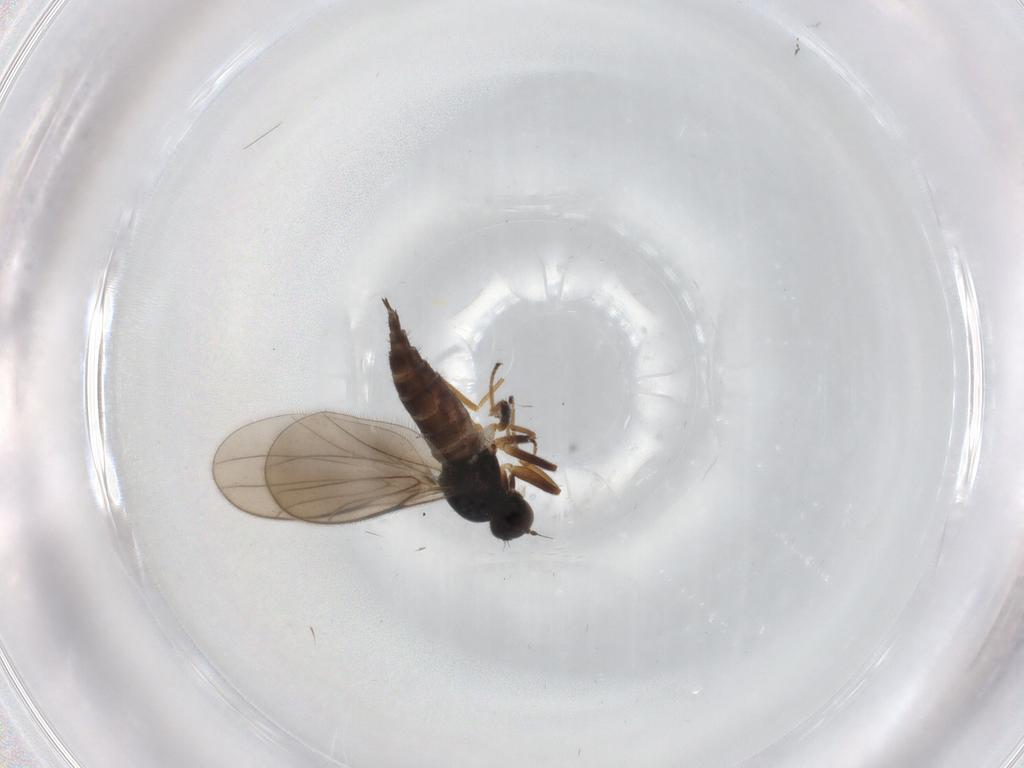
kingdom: Animalia
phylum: Arthropoda
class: Insecta
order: Diptera
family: Hybotidae
